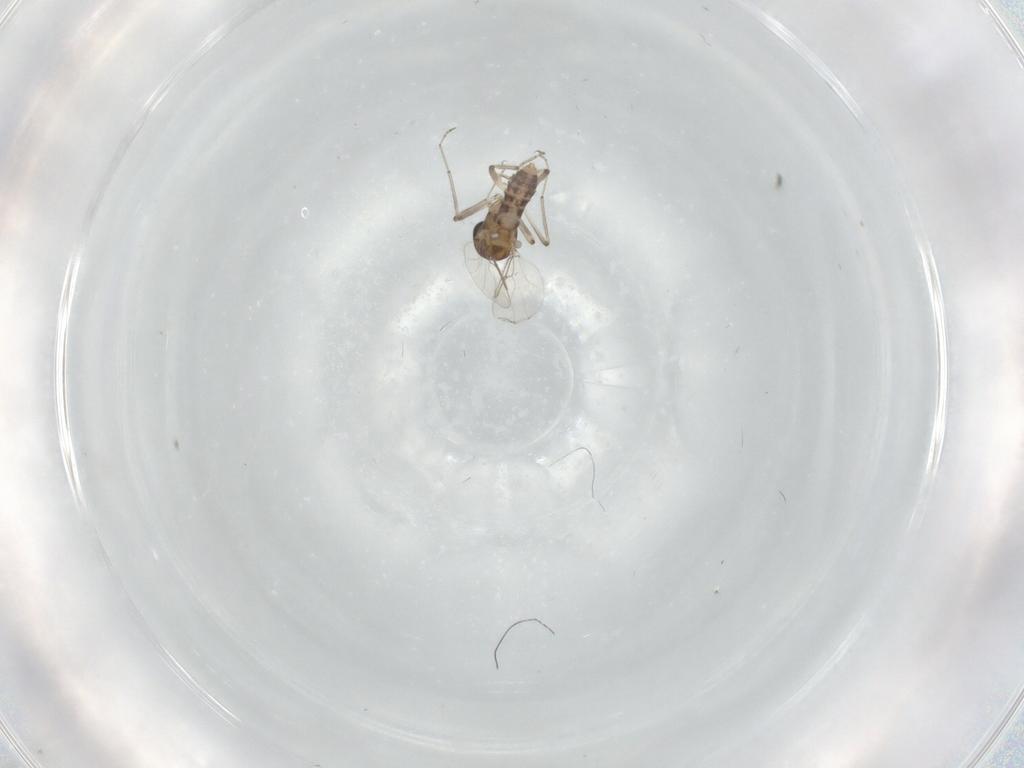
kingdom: Animalia
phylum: Arthropoda
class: Insecta
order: Diptera
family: Ceratopogonidae
